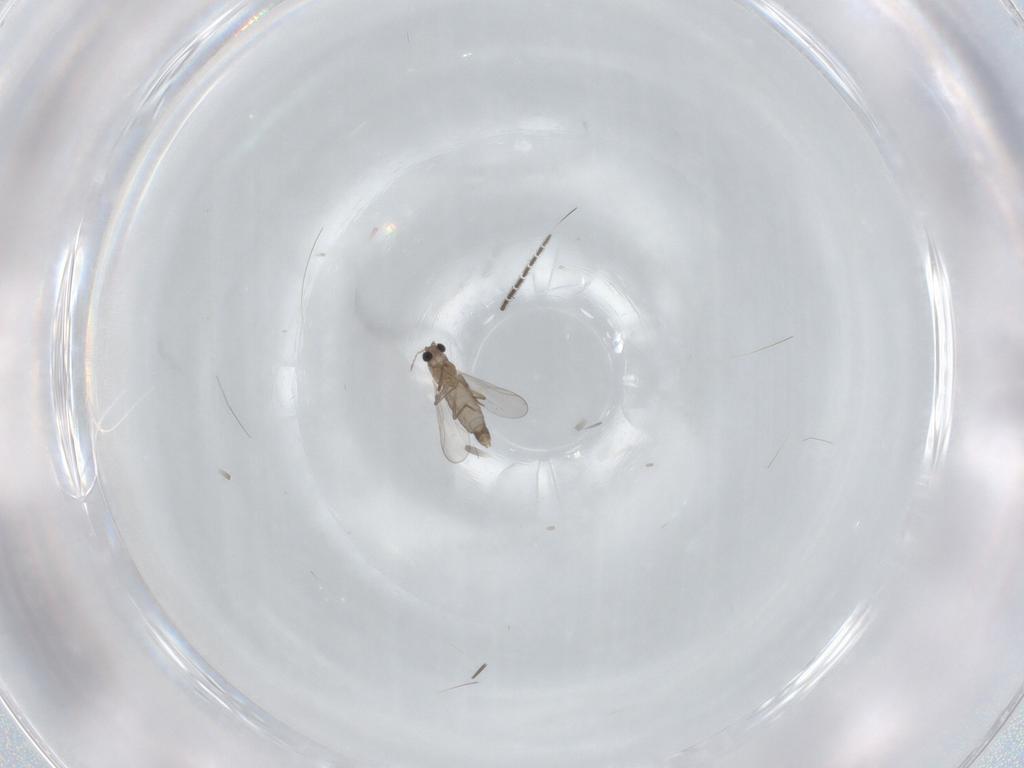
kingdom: Animalia
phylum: Arthropoda
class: Insecta
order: Diptera
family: Chironomidae
